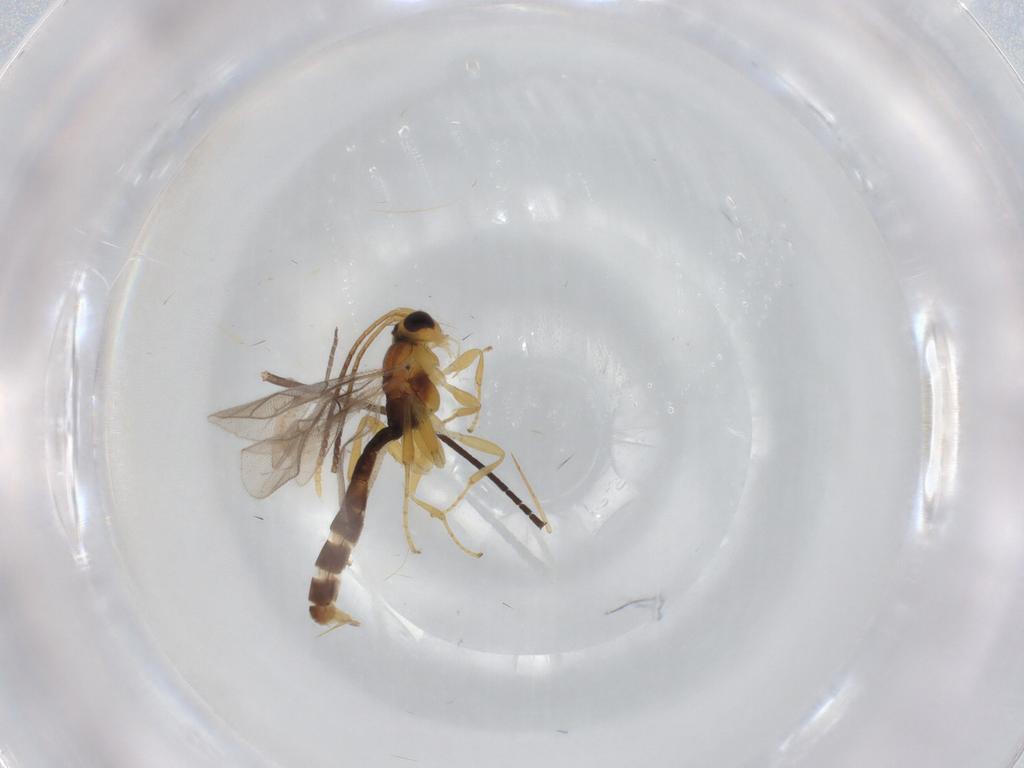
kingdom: Animalia
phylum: Arthropoda
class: Insecta
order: Hymenoptera
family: Ichneumonidae
